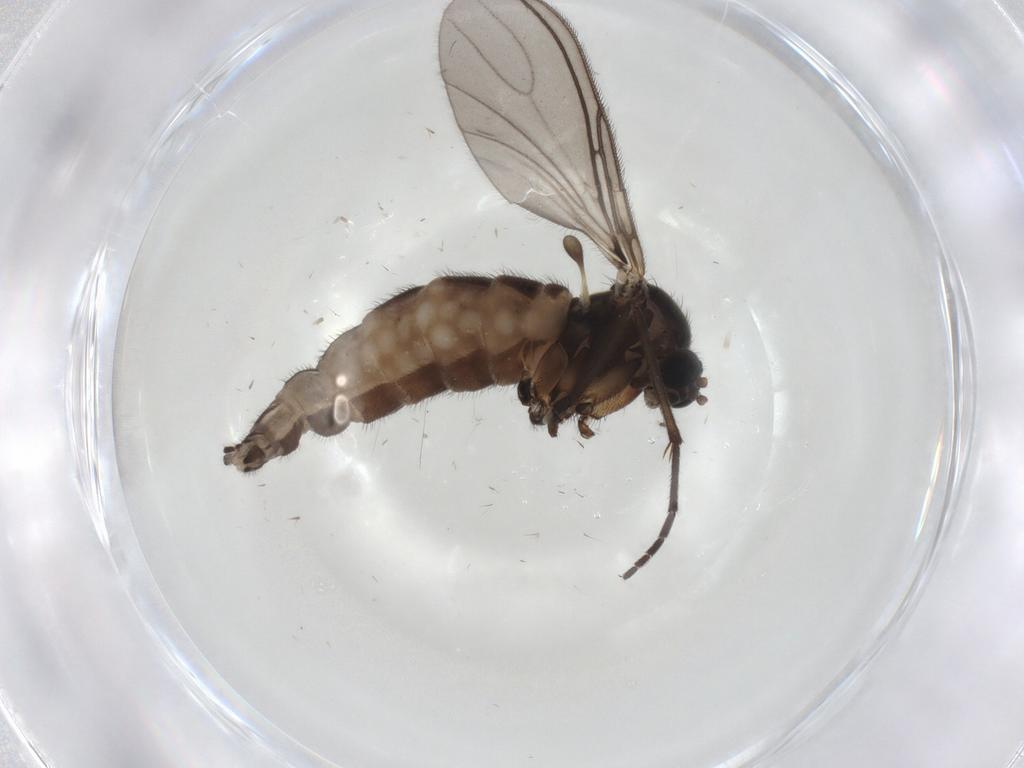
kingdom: Animalia
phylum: Arthropoda
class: Insecta
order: Diptera
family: Sciaridae
